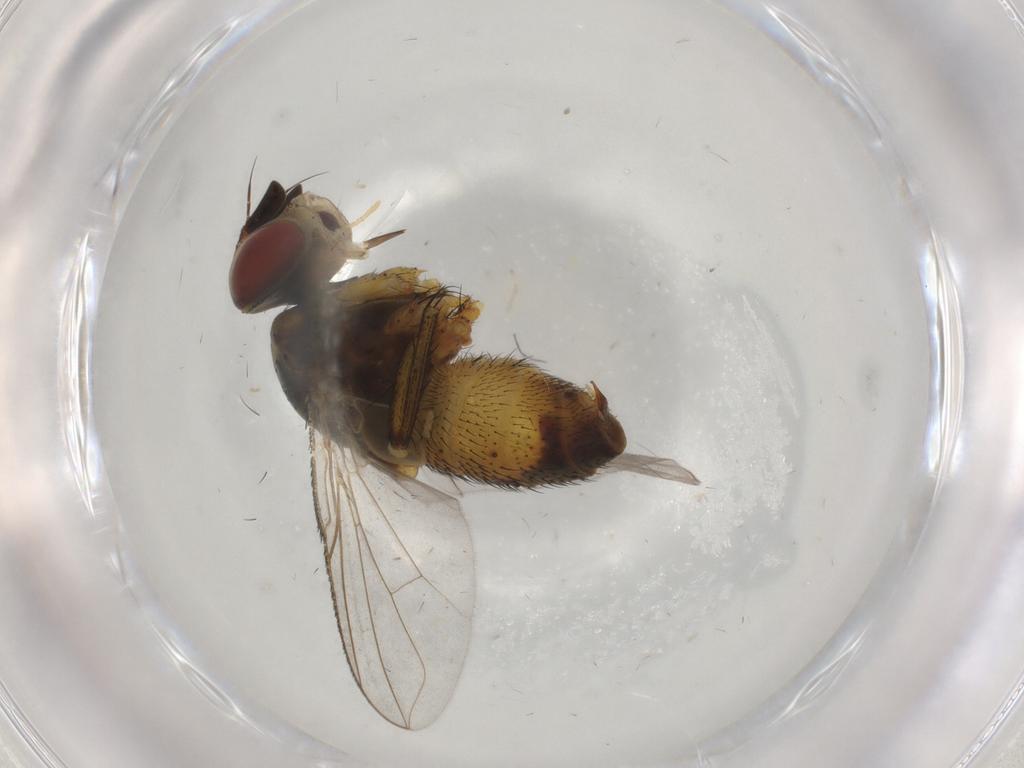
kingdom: Animalia
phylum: Arthropoda
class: Insecta
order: Diptera
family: Tachinidae
